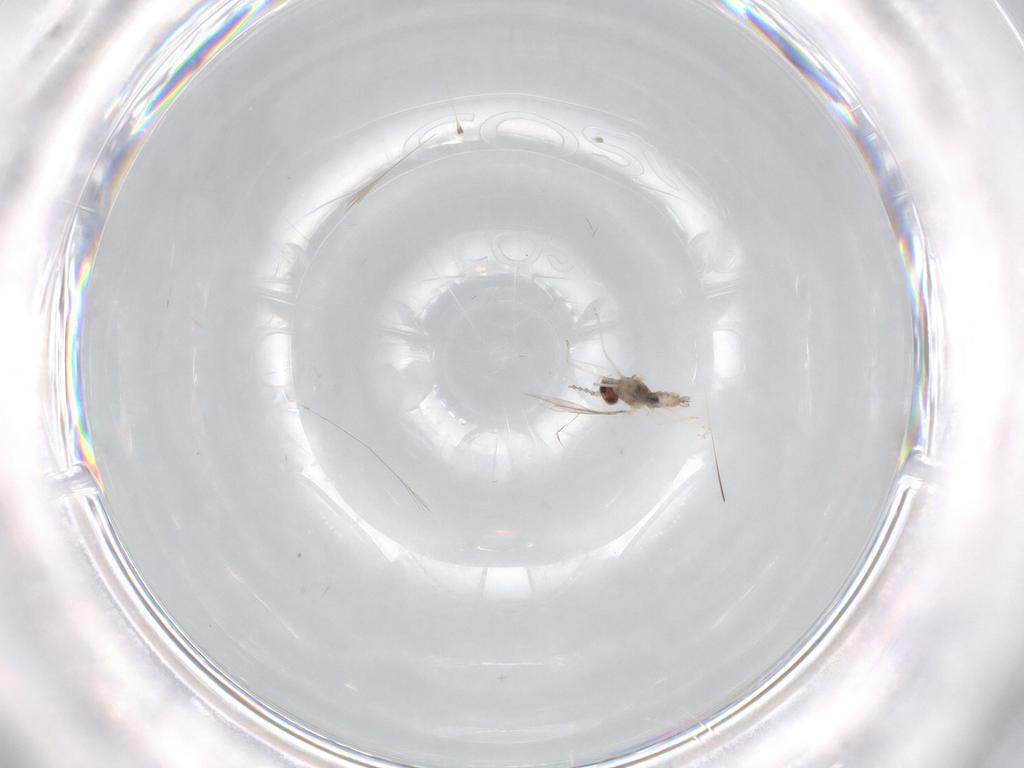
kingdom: Animalia
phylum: Arthropoda
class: Insecta
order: Diptera
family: Cecidomyiidae
